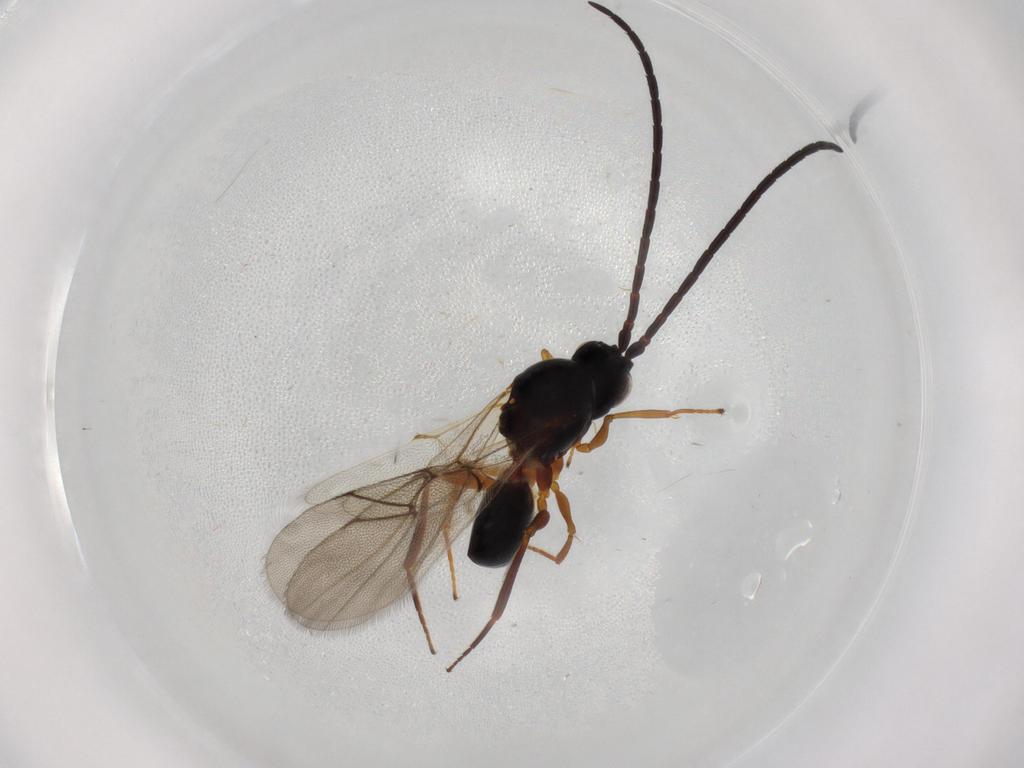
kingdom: Animalia
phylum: Arthropoda
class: Insecta
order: Hymenoptera
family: Figitidae
